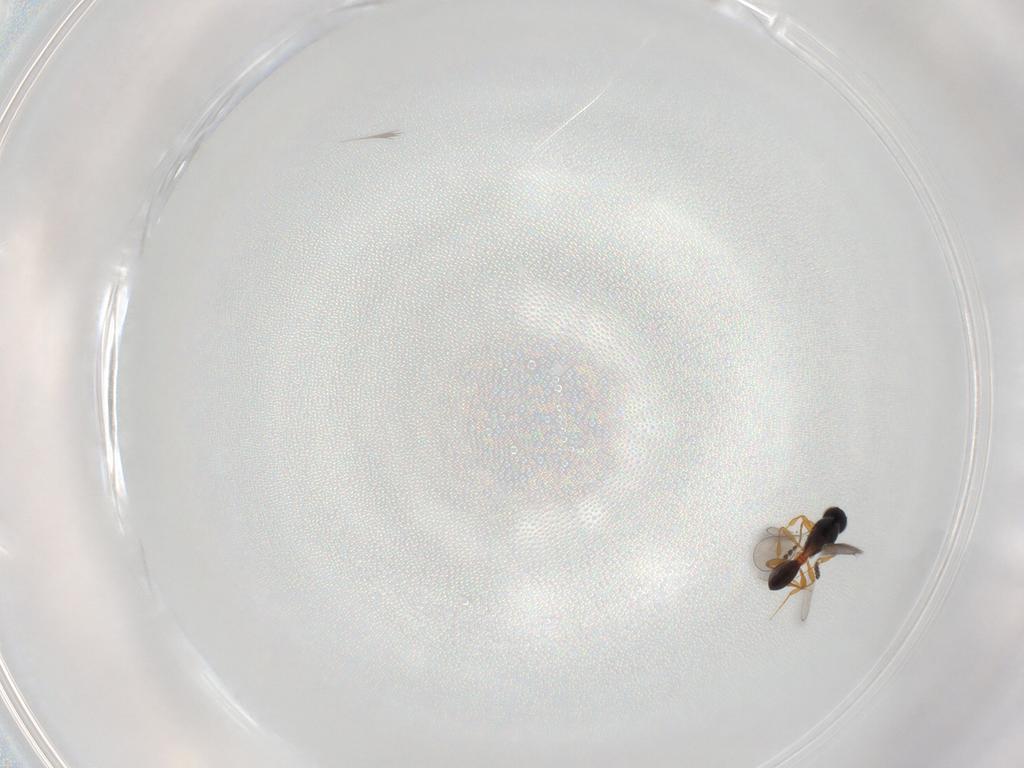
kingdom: Animalia
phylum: Arthropoda
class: Insecta
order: Hymenoptera
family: Platygastridae
